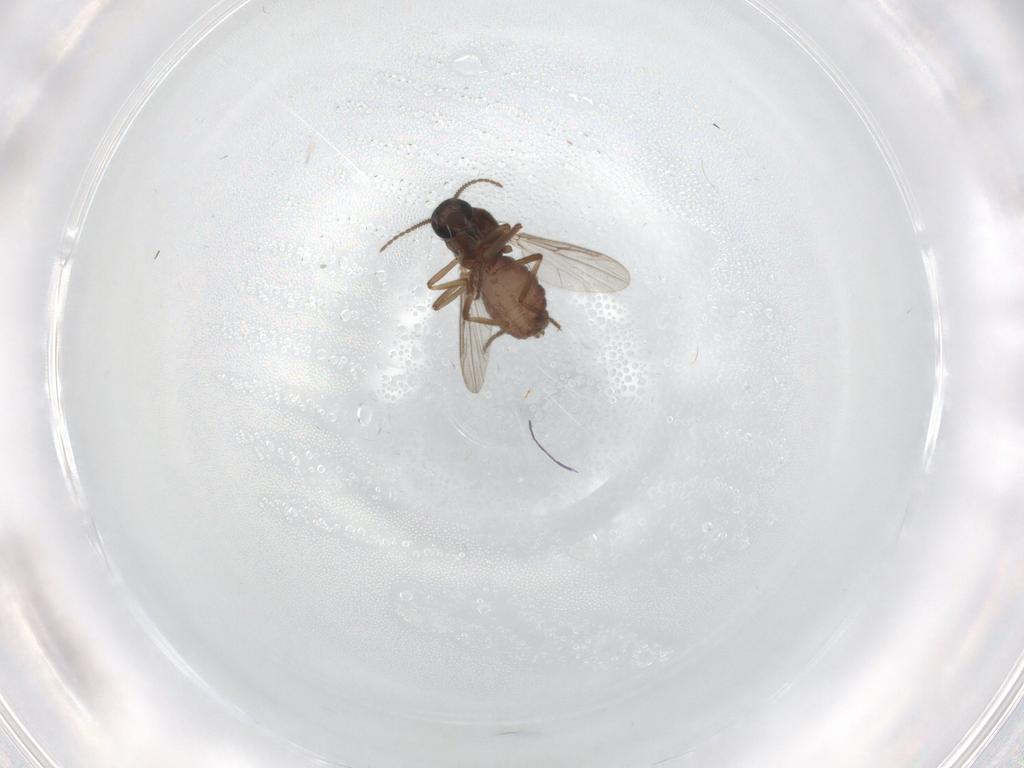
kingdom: Animalia
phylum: Arthropoda
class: Insecta
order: Diptera
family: Ceratopogonidae
